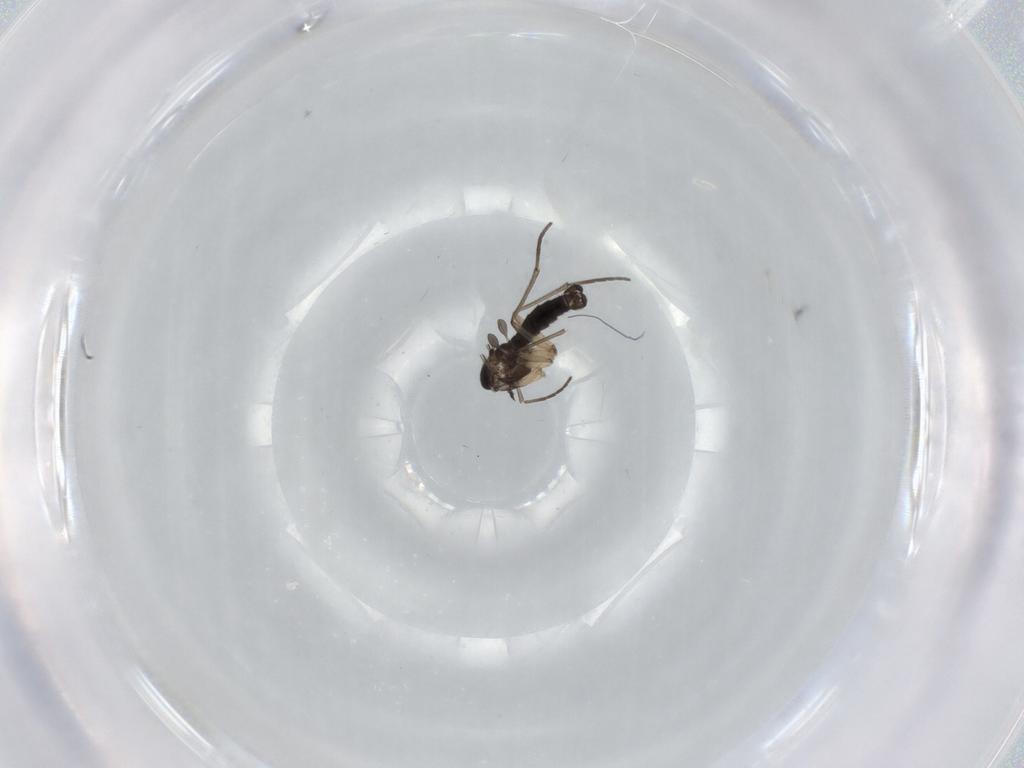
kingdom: Animalia
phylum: Arthropoda
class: Insecta
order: Diptera
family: Sciaridae
